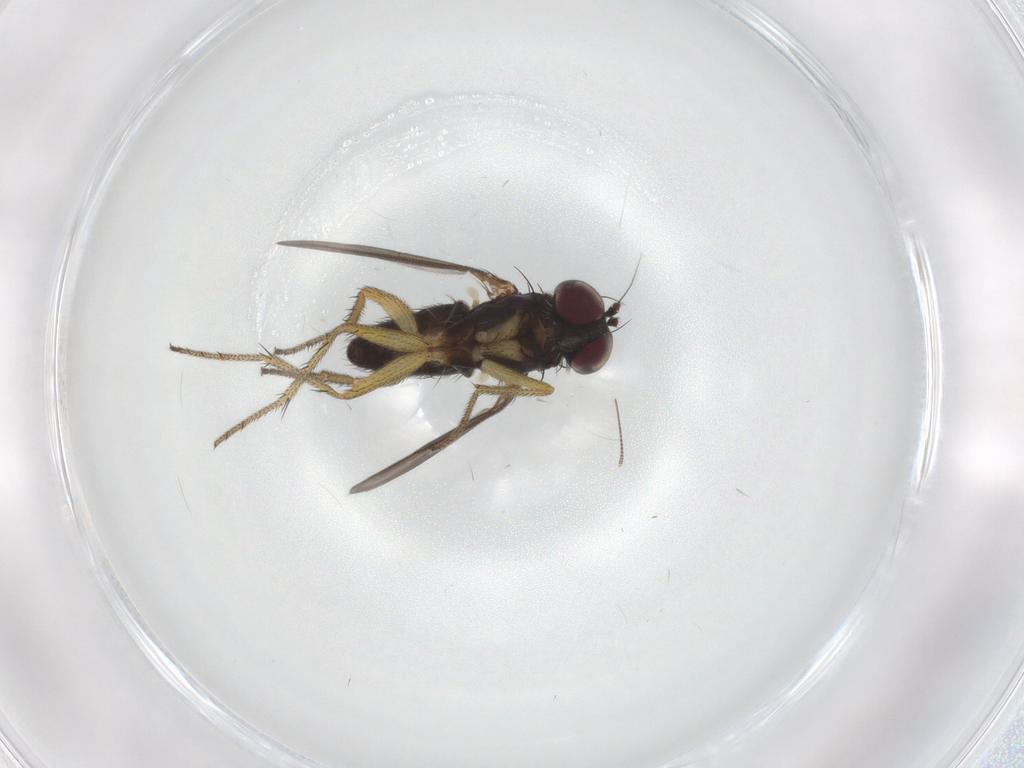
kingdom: Animalia
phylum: Arthropoda
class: Insecta
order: Diptera
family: Dolichopodidae
